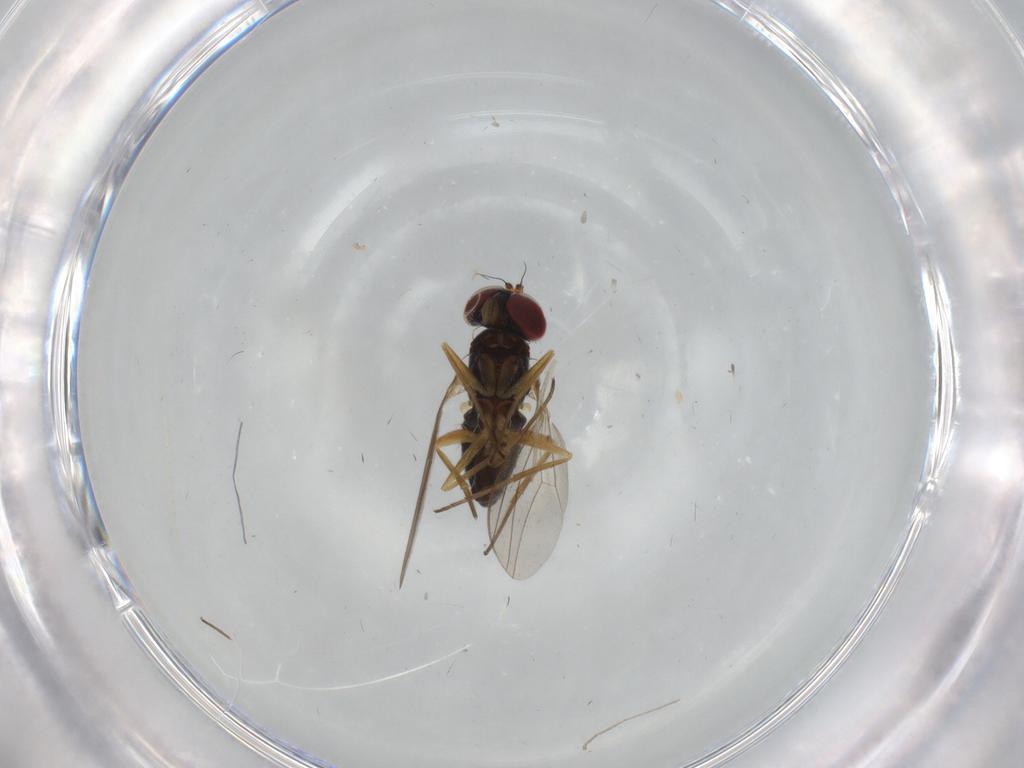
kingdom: Animalia
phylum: Arthropoda
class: Insecta
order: Diptera
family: Dolichopodidae
